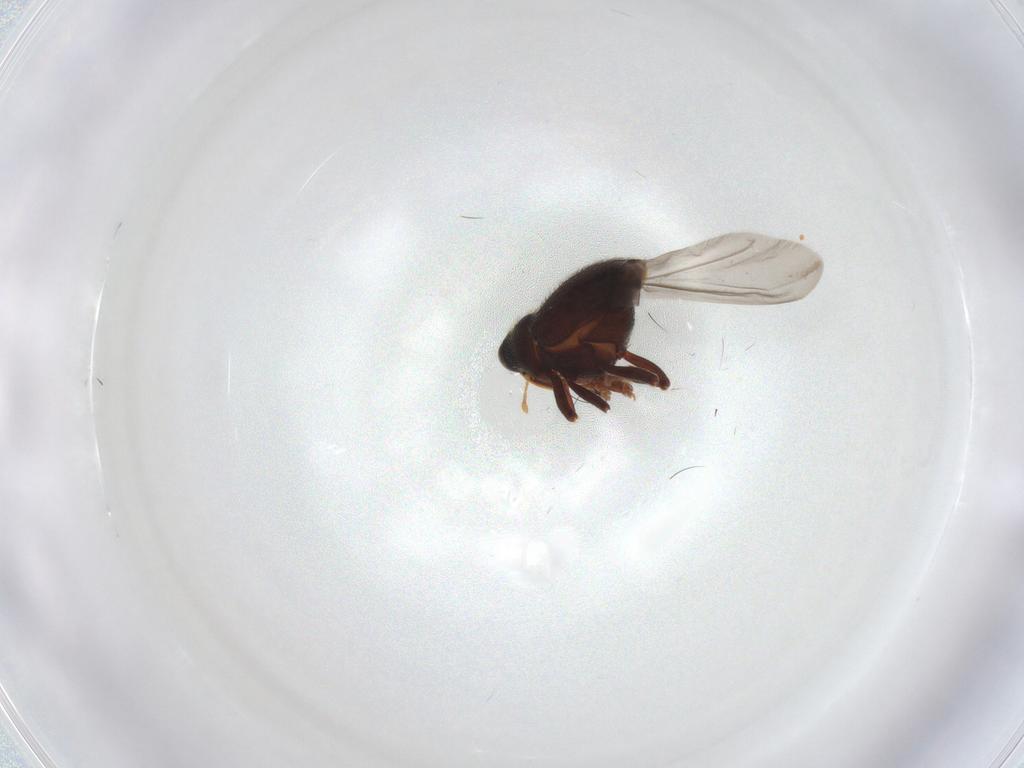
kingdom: Animalia
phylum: Arthropoda
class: Insecta
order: Coleoptera
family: Curculionidae
